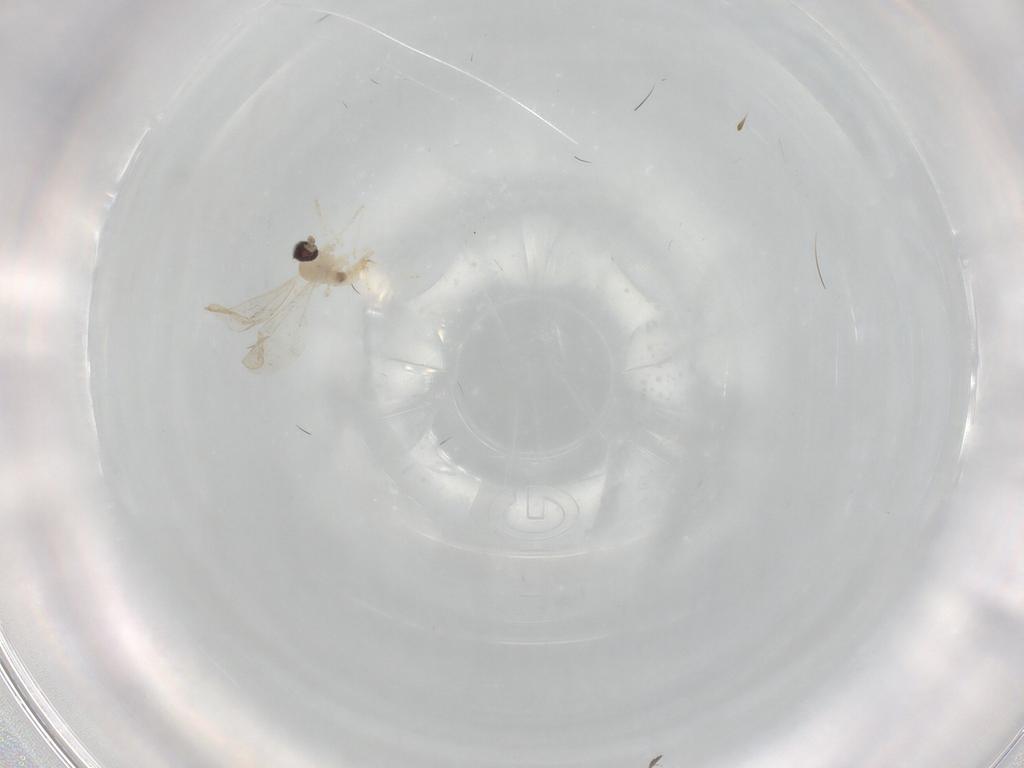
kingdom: Animalia
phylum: Arthropoda
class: Insecta
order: Diptera
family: Cecidomyiidae
